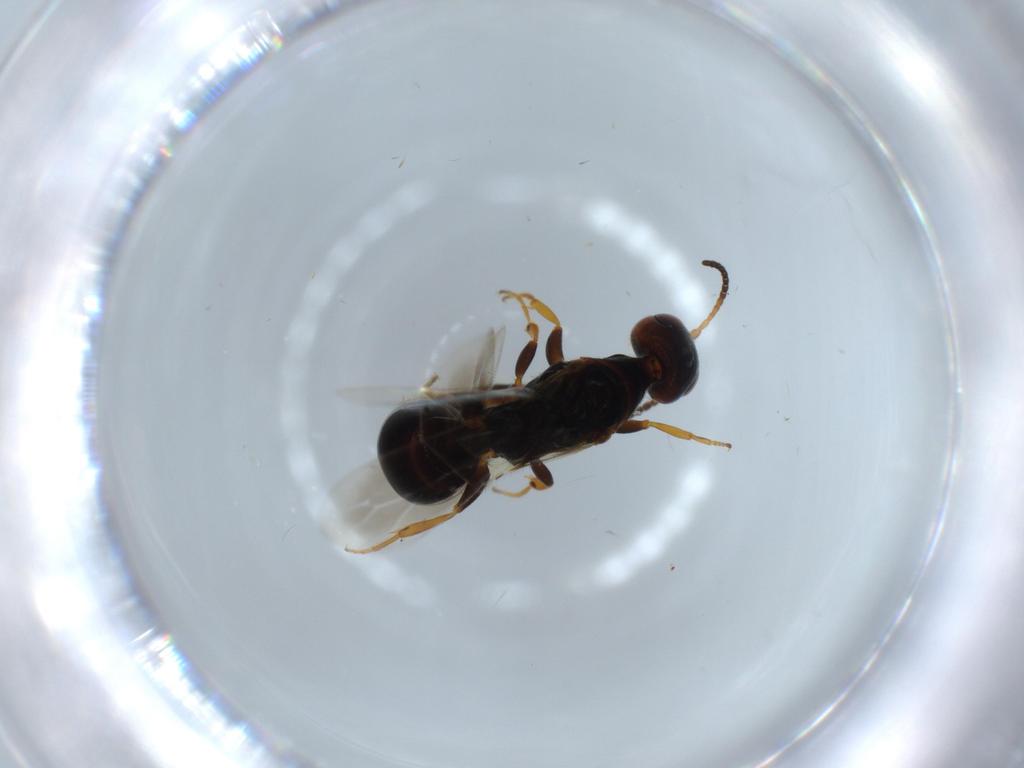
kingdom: Animalia
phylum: Arthropoda
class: Insecta
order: Hymenoptera
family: Bethylidae
